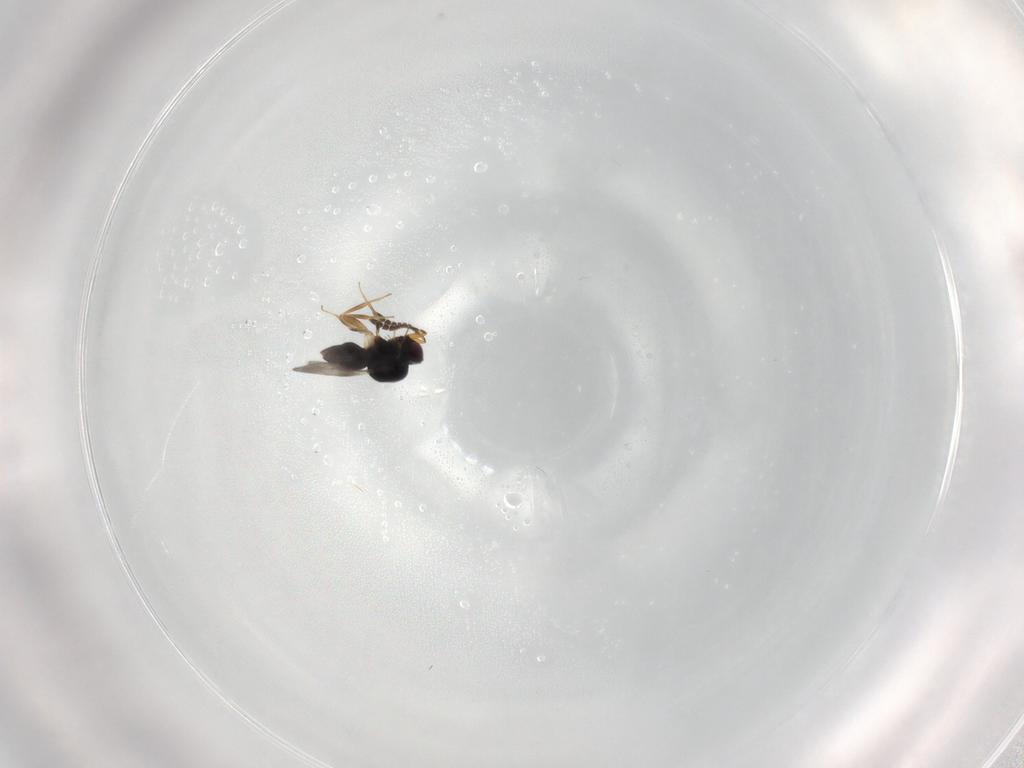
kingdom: Animalia
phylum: Arthropoda
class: Insecta
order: Hymenoptera
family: Ceraphronidae
